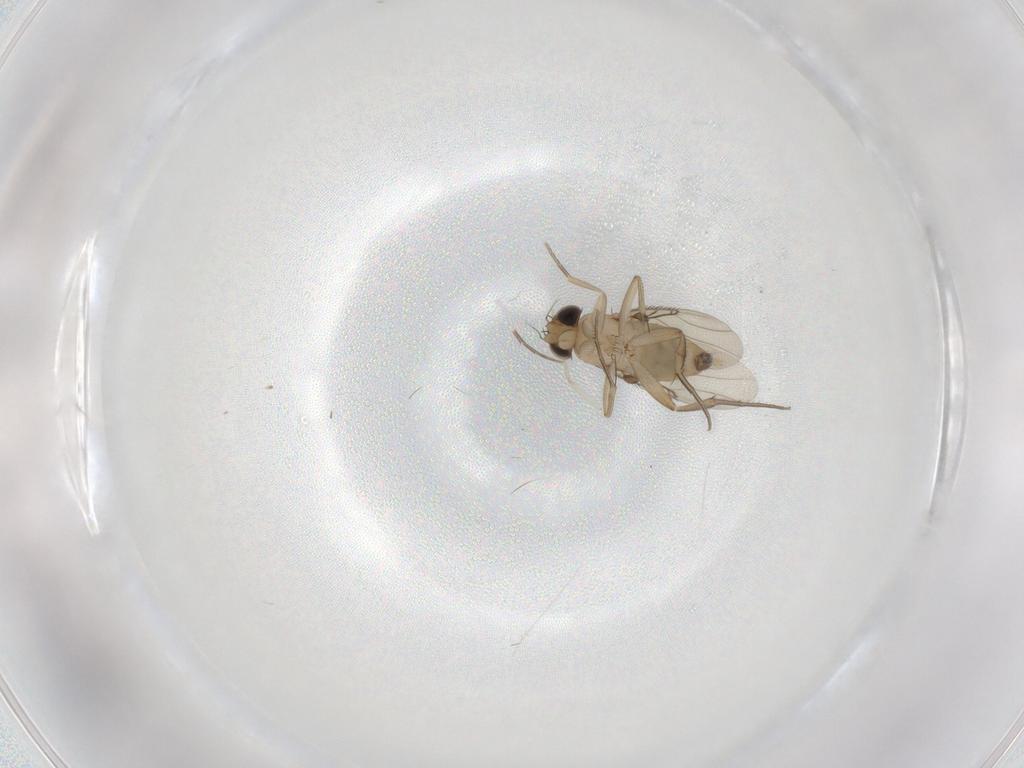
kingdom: Animalia
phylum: Arthropoda
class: Insecta
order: Diptera
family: Phoridae
